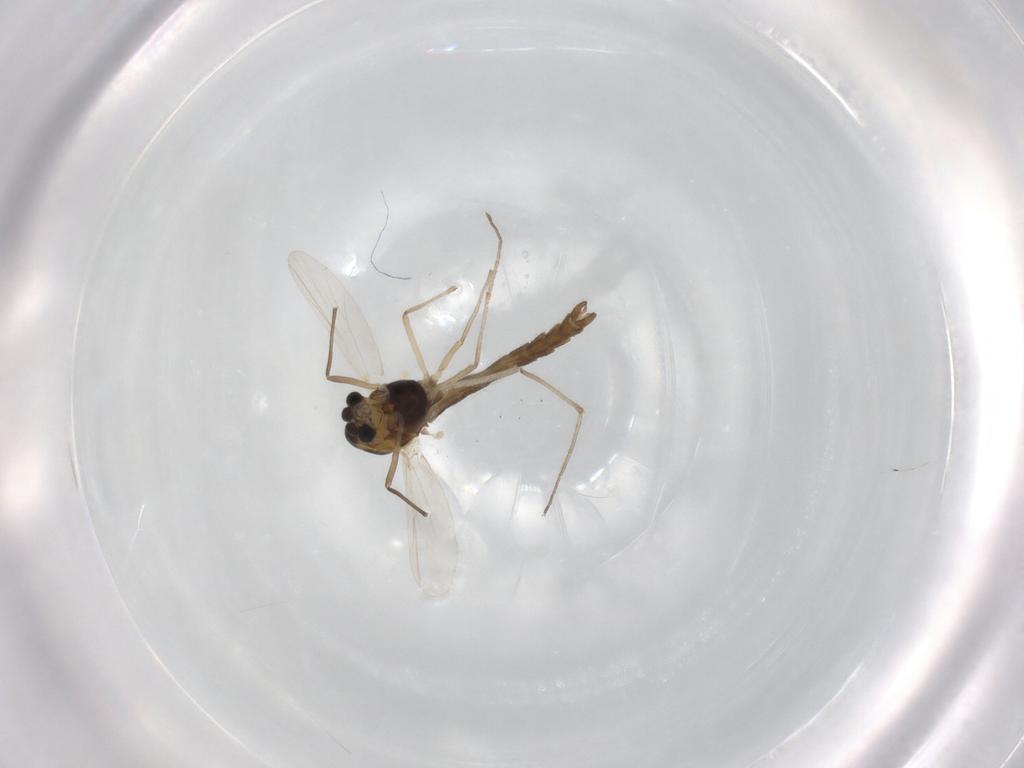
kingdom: Animalia
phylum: Arthropoda
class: Insecta
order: Diptera
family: Chironomidae
